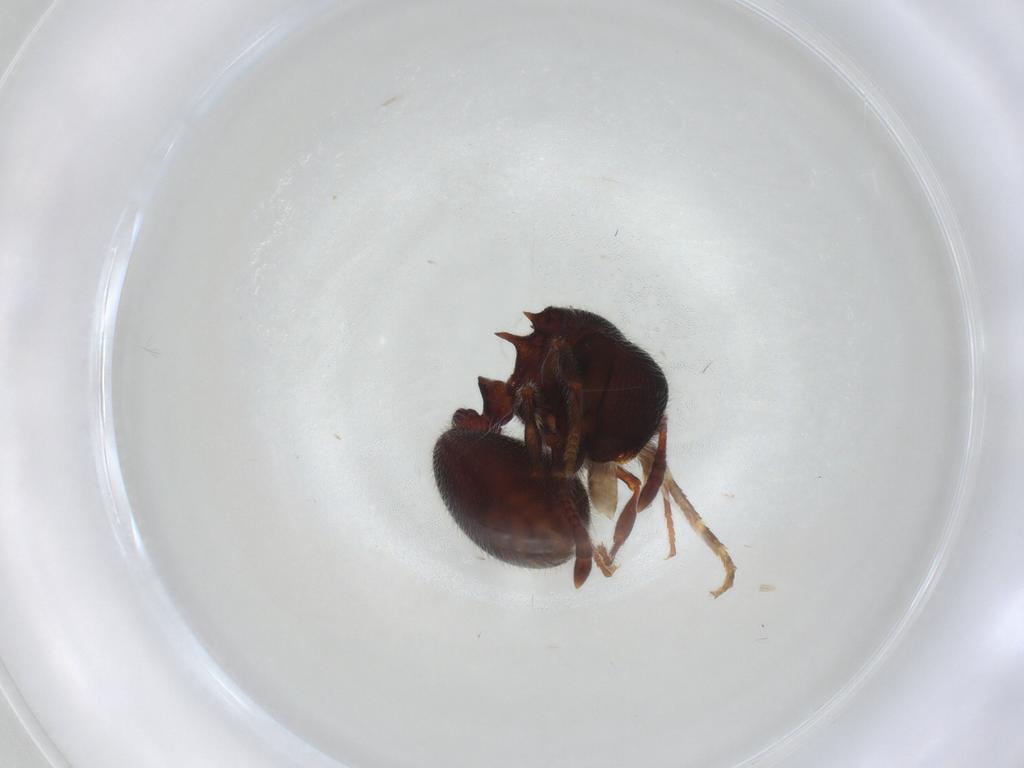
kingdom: Animalia
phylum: Arthropoda
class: Insecta
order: Hymenoptera
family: Formicidae
